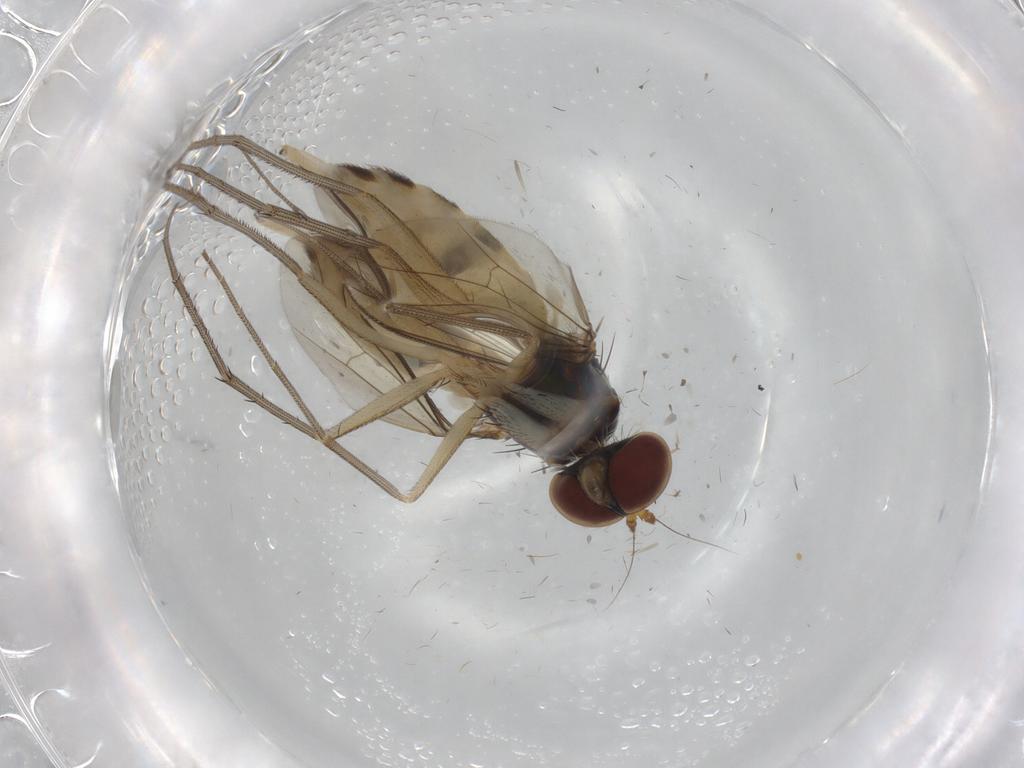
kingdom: Animalia
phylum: Arthropoda
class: Insecta
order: Diptera
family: Dolichopodidae
